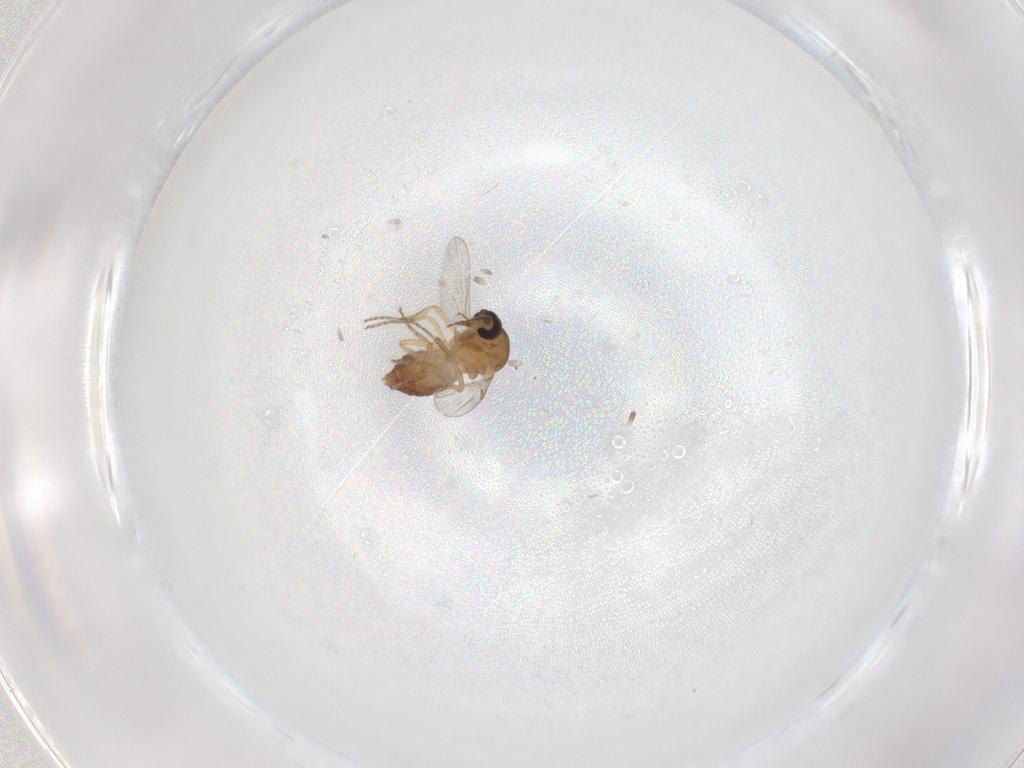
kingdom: Animalia
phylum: Arthropoda
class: Insecta
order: Diptera
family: Ceratopogonidae
